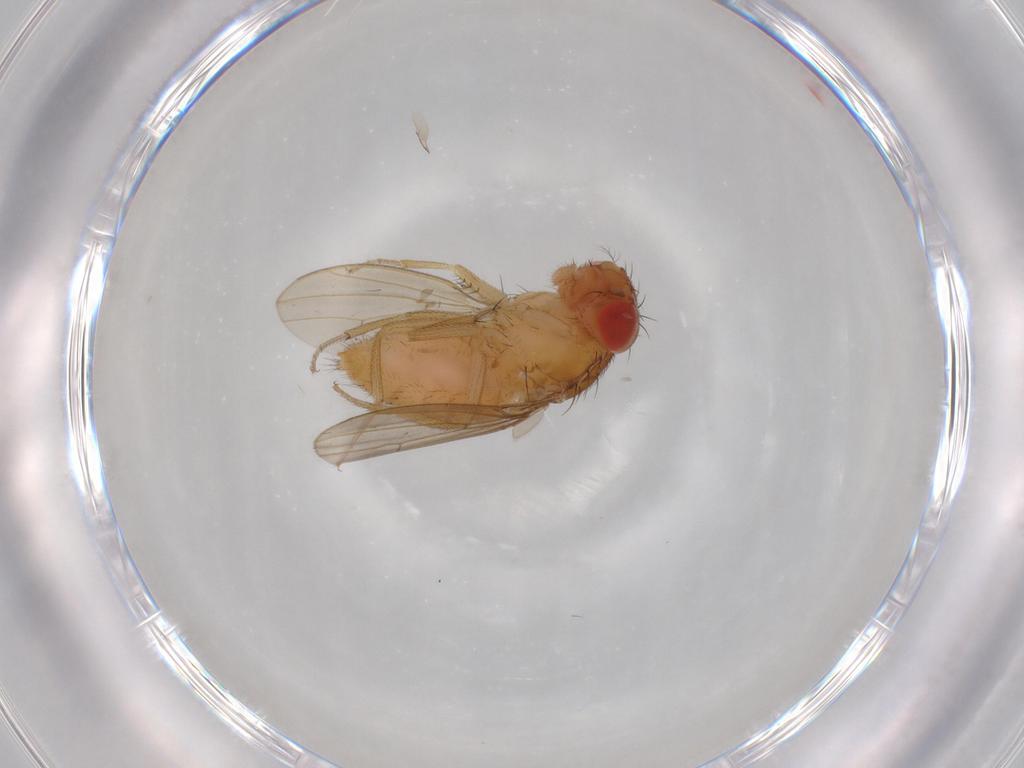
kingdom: Animalia
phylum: Arthropoda
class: Insecta
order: Diptera
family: Drosophilidae
